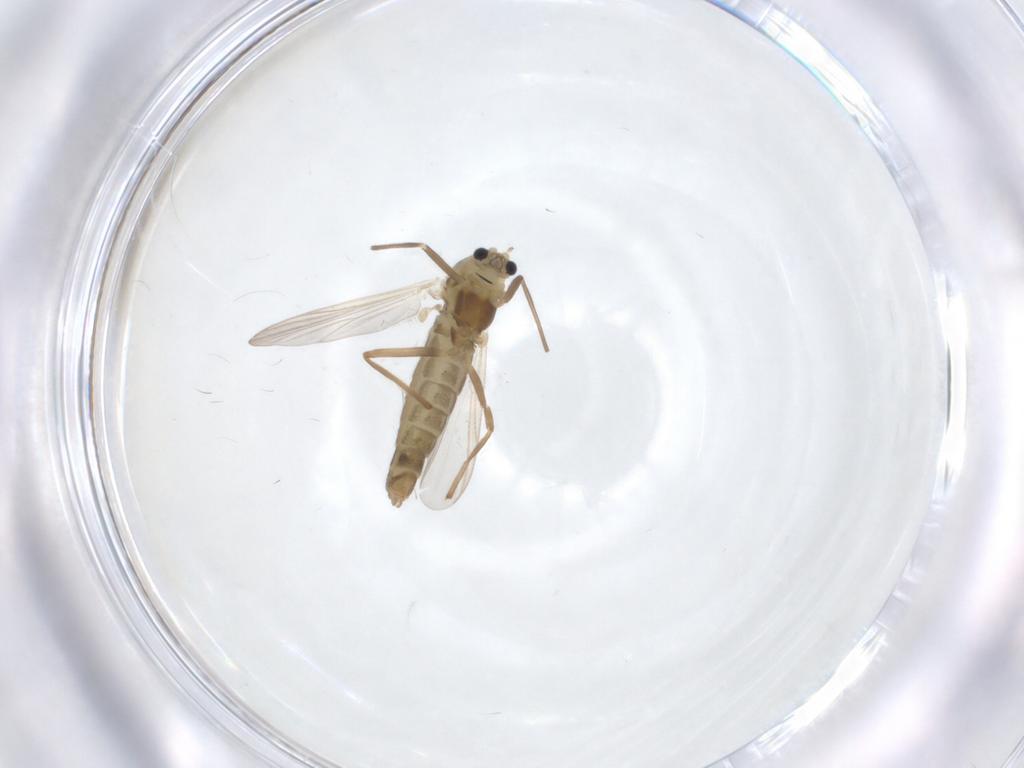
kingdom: Animalia
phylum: Arthropoda
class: Insecta
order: Diptera
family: Chironomidae
